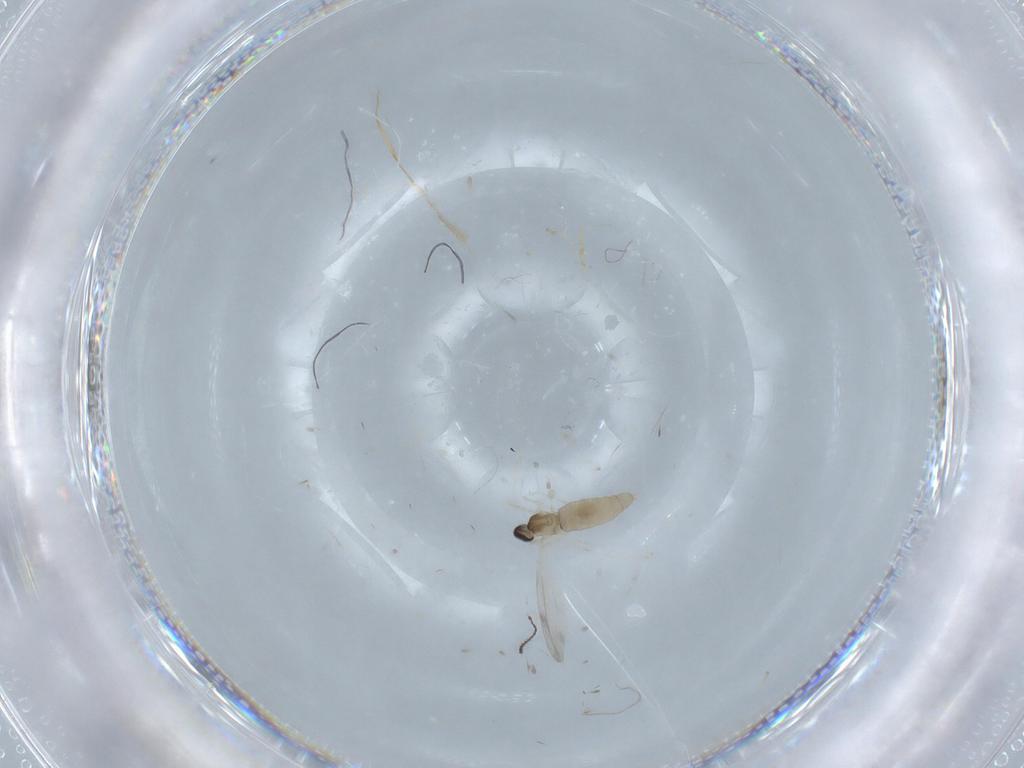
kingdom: Animalia
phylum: Arthropoda
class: Insecta
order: Diptera
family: Cecidomyiidae
